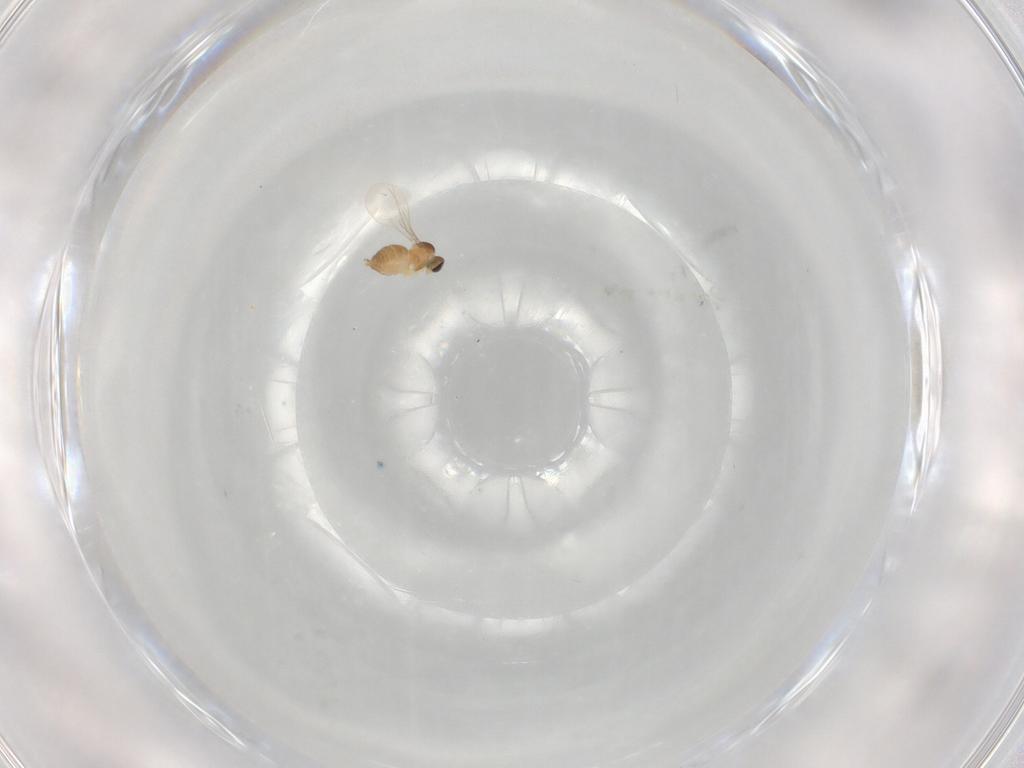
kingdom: Animalia
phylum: Arthropoda
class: Insecta
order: Diptera
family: Cecidomyiidae
